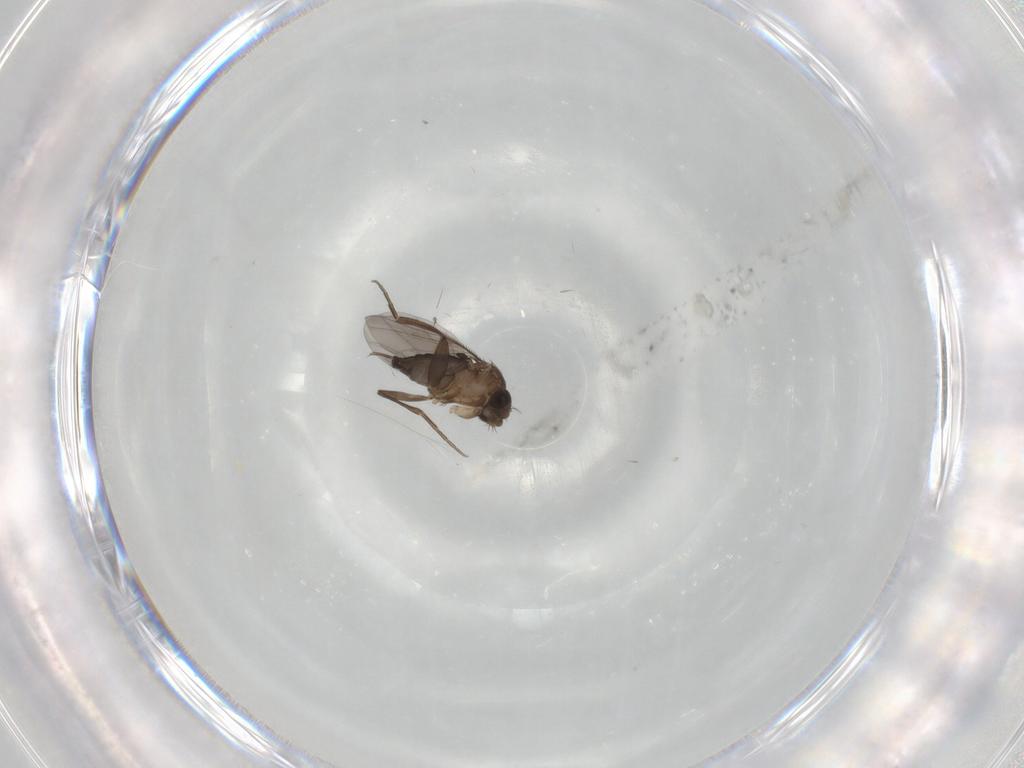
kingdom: Animalia
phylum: Arthropoda
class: Insecta
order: Diptera
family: Phoridae
